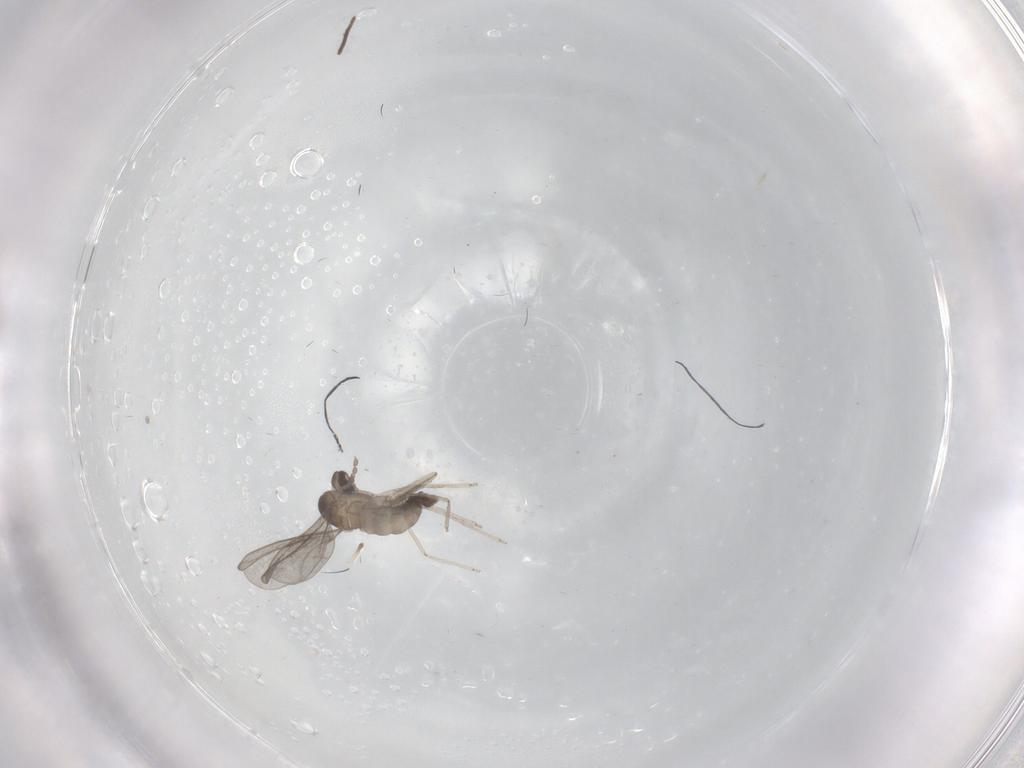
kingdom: Animalia
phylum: Arthropoda
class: Insecta
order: Diptera
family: Cecidomyiidae
